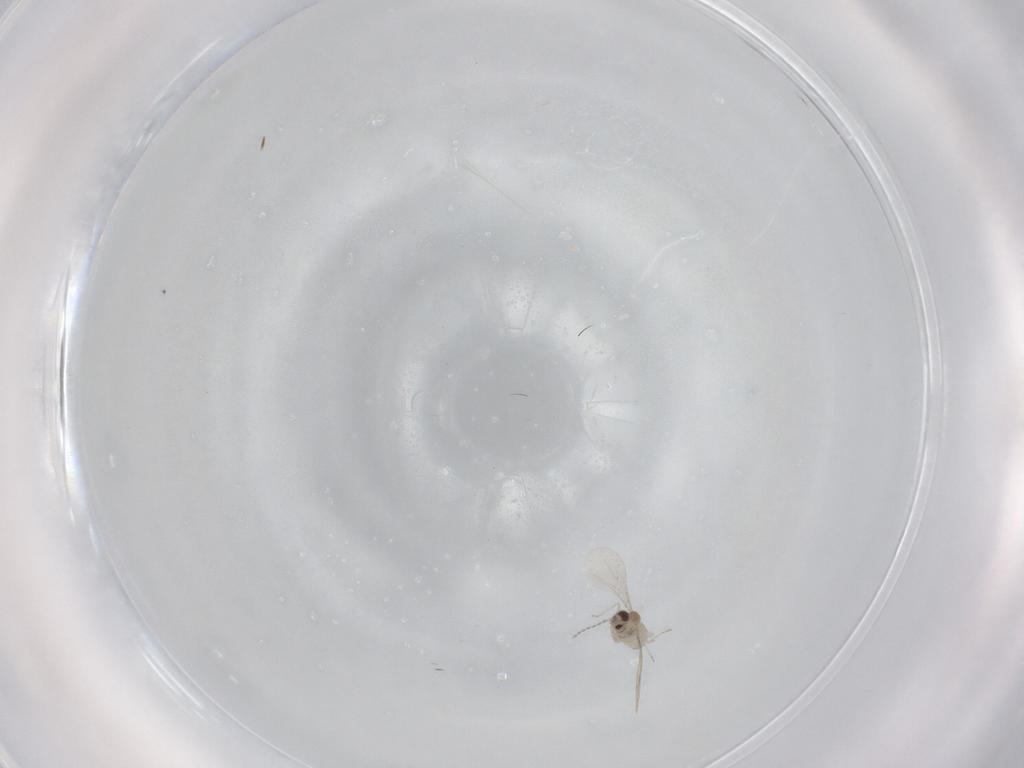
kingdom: Animalia
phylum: Arthropoda
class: Insecta
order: Diptera
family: Cecidomyiidae
